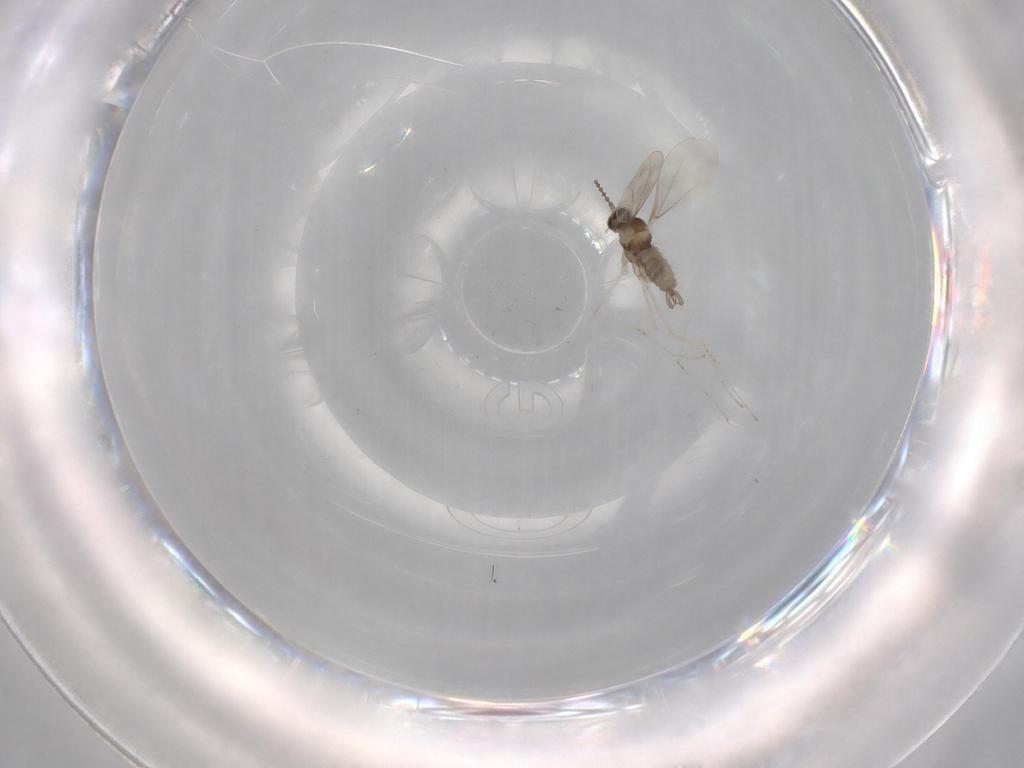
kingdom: Animalia
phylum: Arthropoda
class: Insecta
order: Diptera
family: Cecidomyiidae
